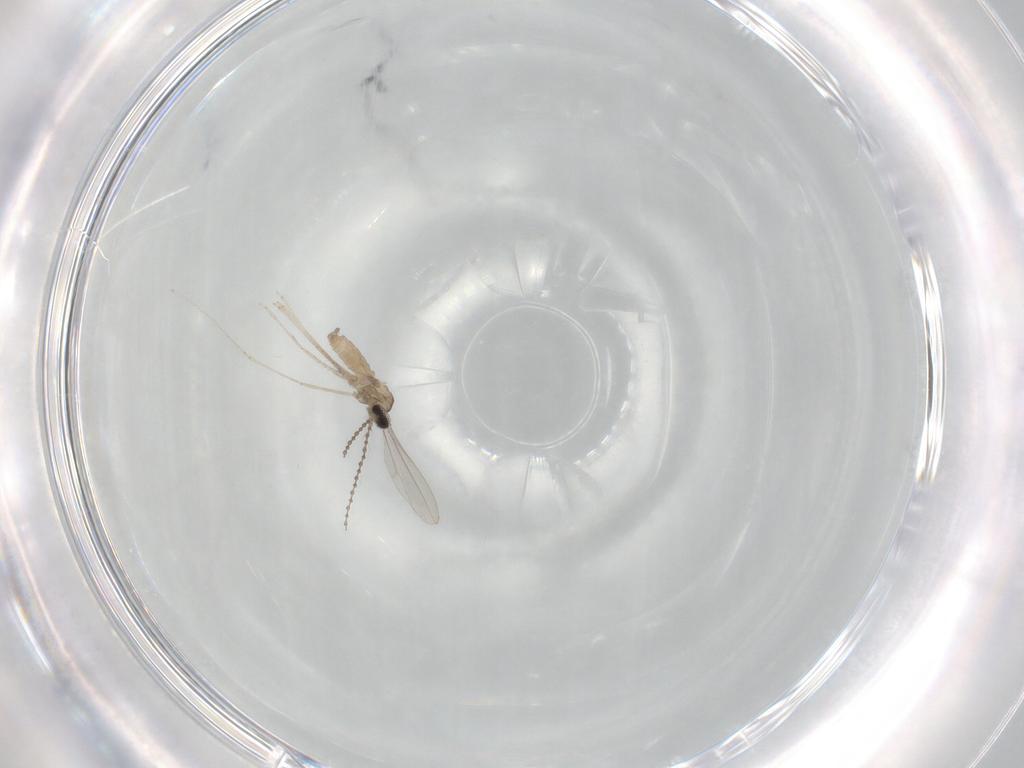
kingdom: Animalia
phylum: Arthropoda
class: Insecta
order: Diptera
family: Cecidomyiidae
